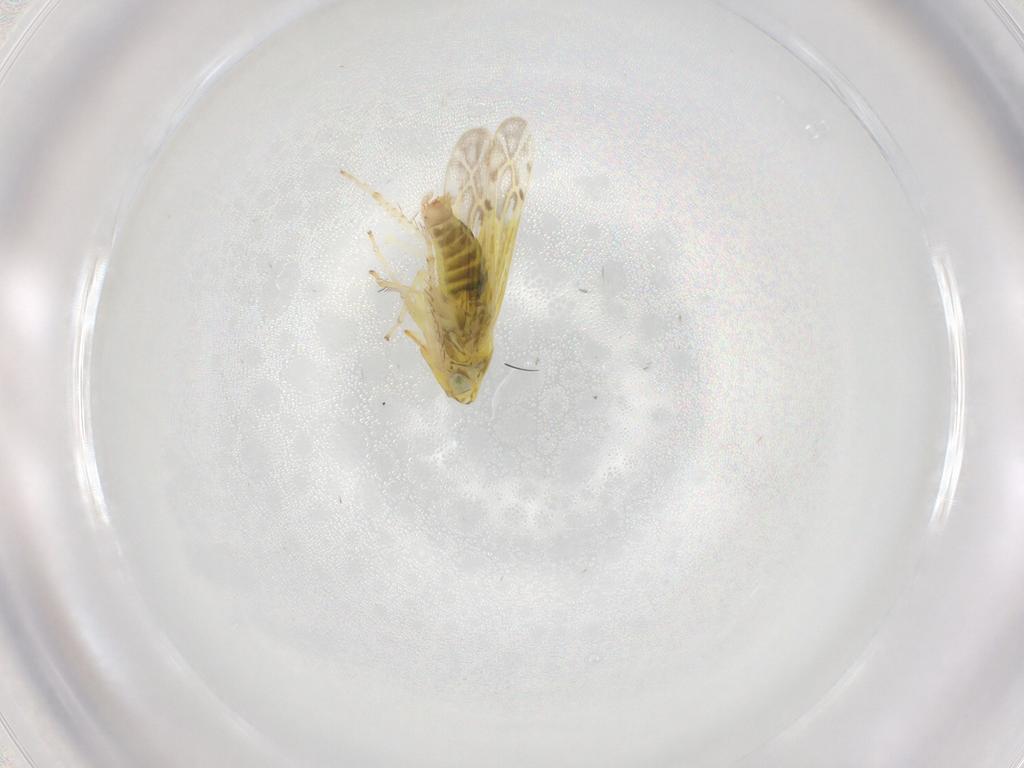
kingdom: Animalia
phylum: Arthropoda
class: Insecta
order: Hemiptera
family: Cicadellidae
